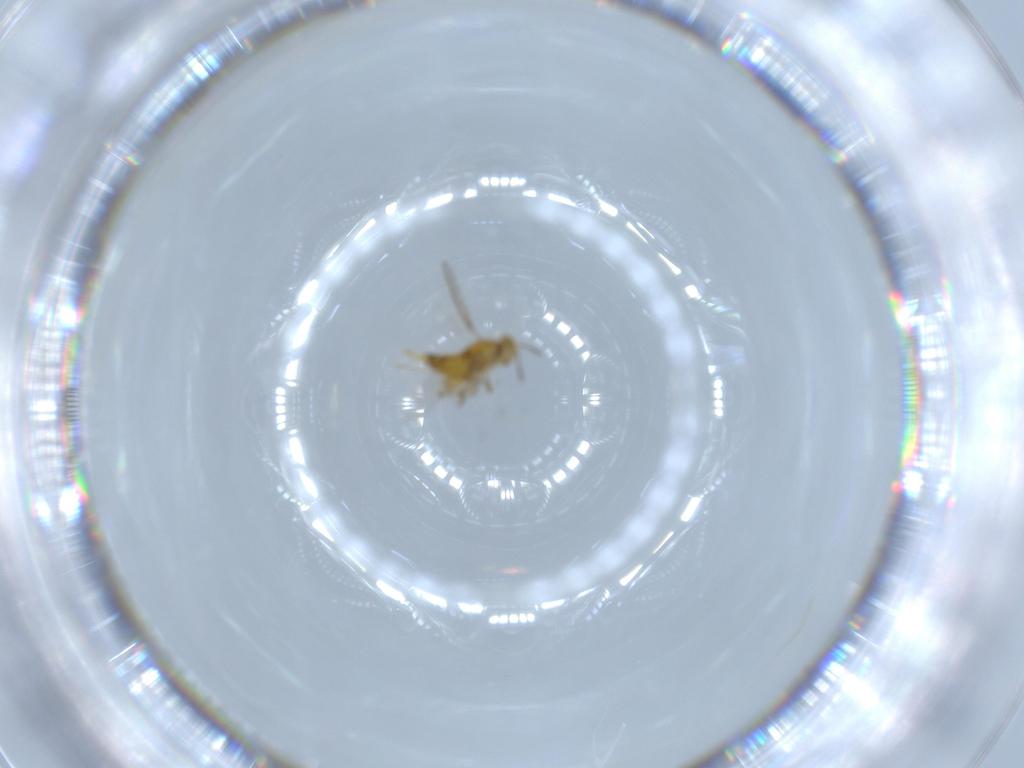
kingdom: Animalia
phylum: Arthropoda
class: Insecta
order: Hymenoptera
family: Aphelinidae
